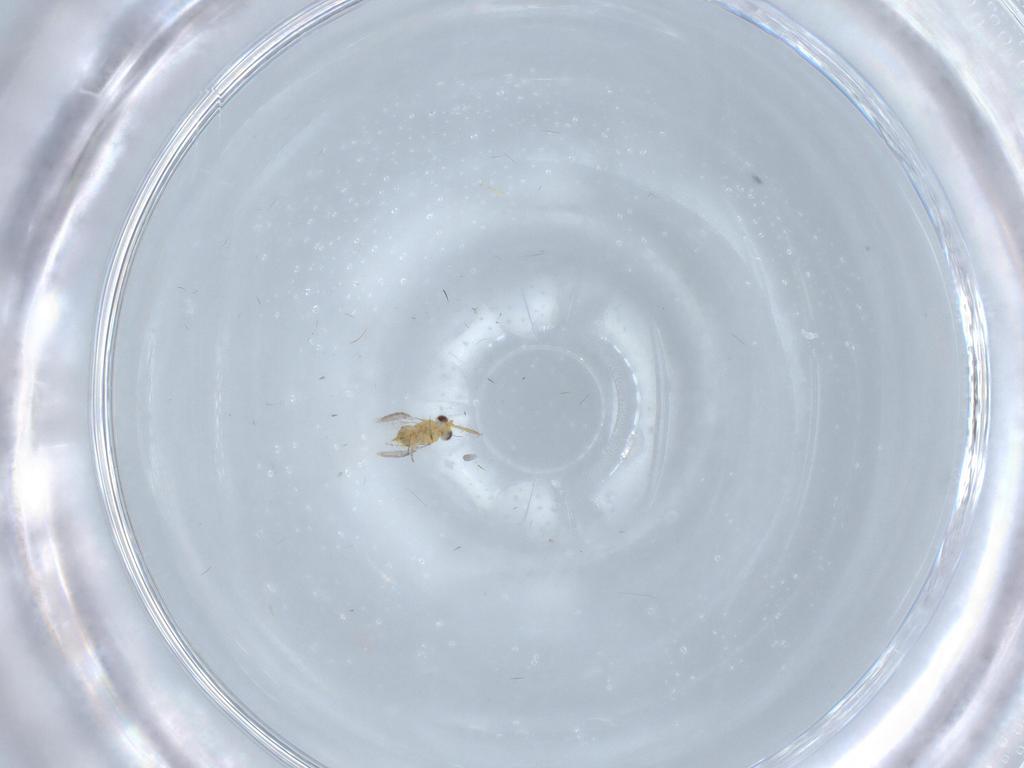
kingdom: Animalia
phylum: Arthropoda
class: Insecta
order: Hymenoptera
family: Aphelinidae
